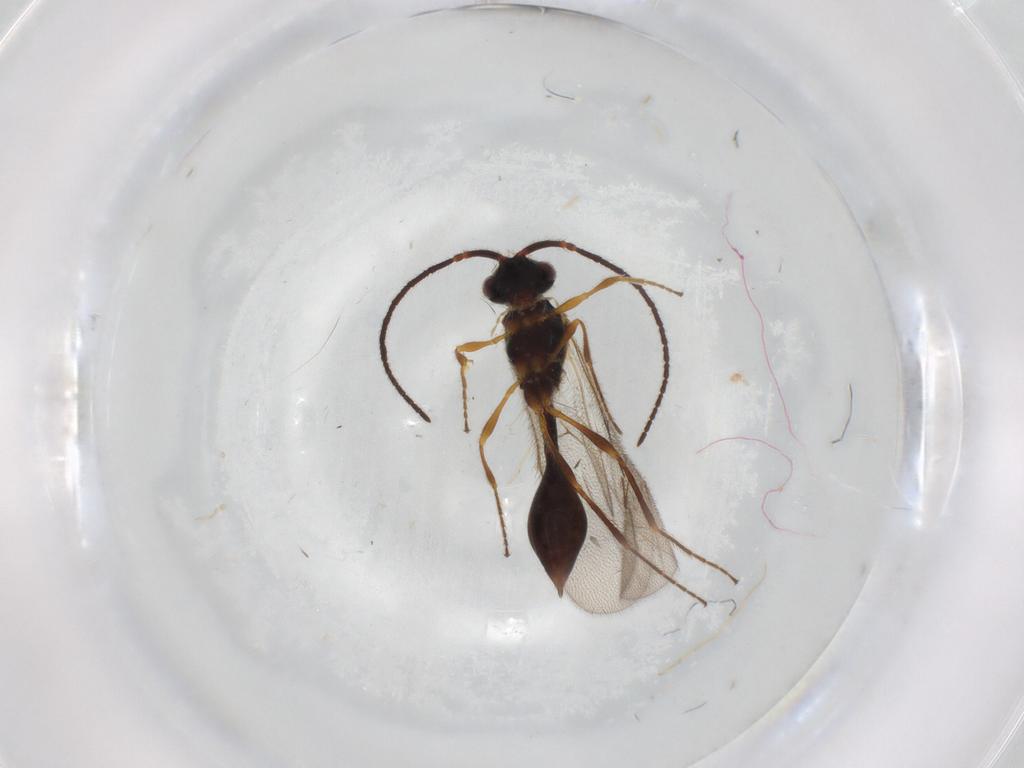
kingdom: Animalia
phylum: Arthropoda
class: Insecta
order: Hymenoptera
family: Diapriidae
